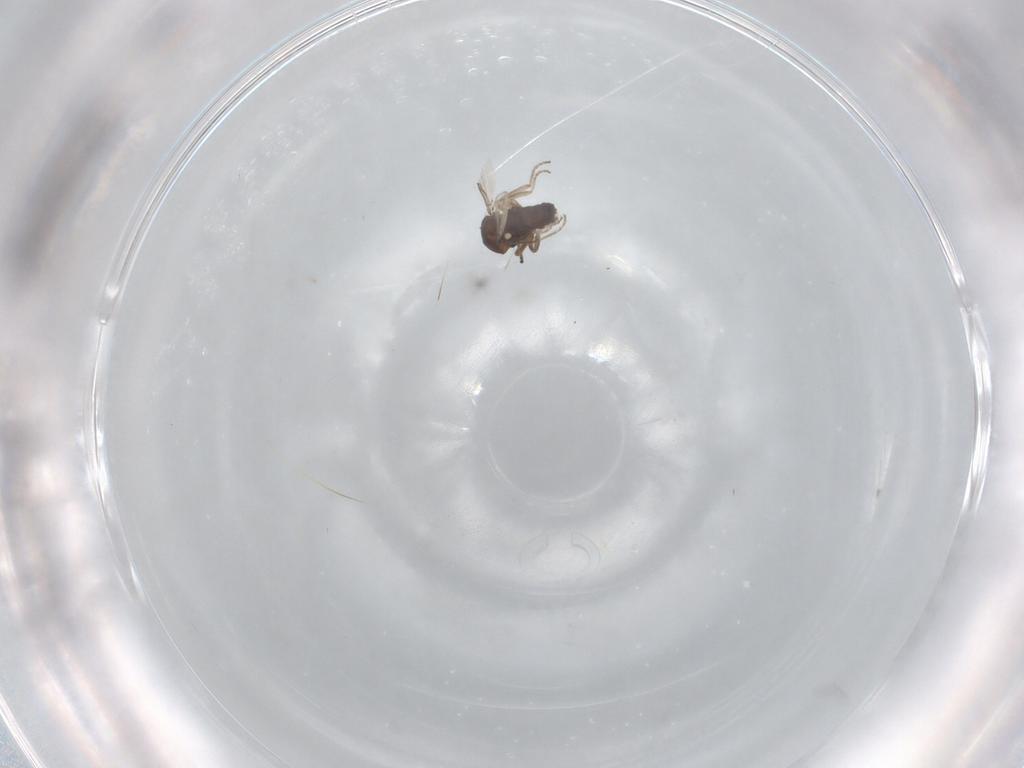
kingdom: Animalia
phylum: Arthropoda
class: Insecta
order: Diptera
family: Ceratopogonidae
